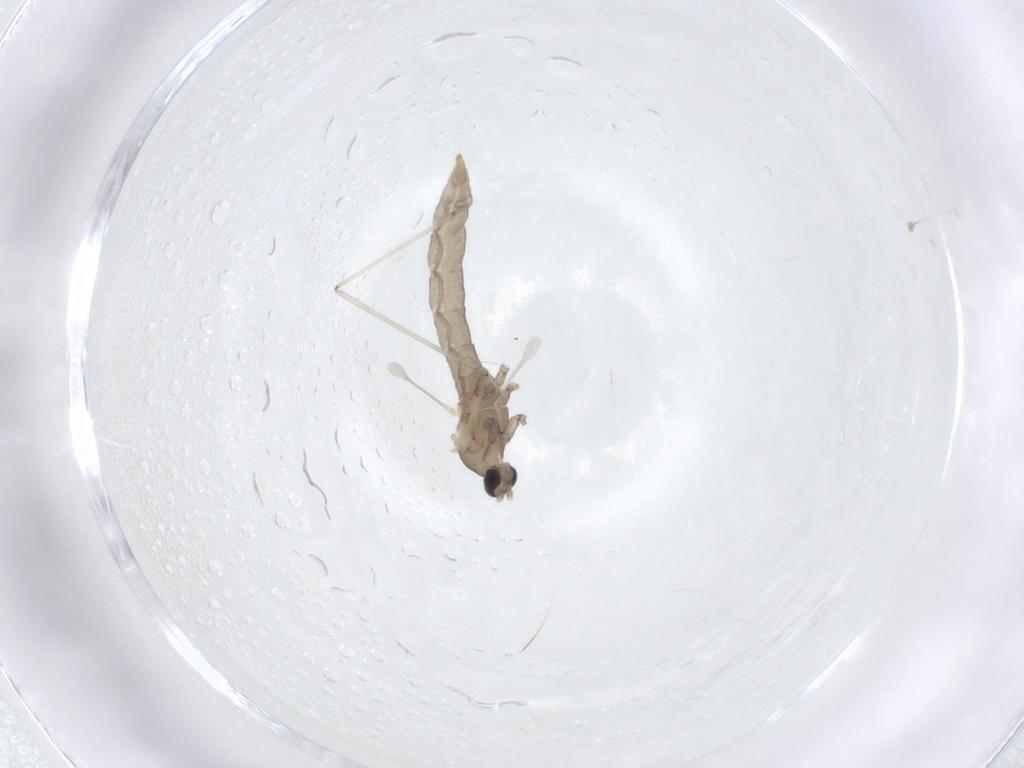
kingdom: Animalia
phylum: Arthropoda
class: Insecta
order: Diptera
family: Cecidomyiidae
